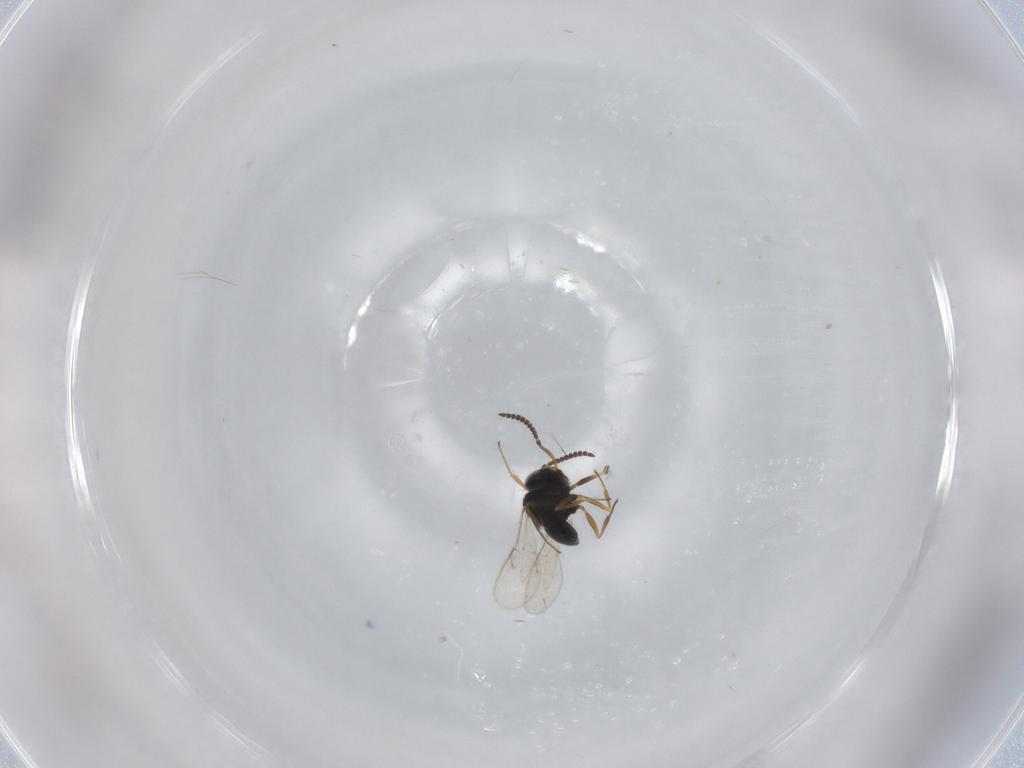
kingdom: Animalia
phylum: Arthropoda
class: Insecta
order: Hymenoptera
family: Scelionidae
